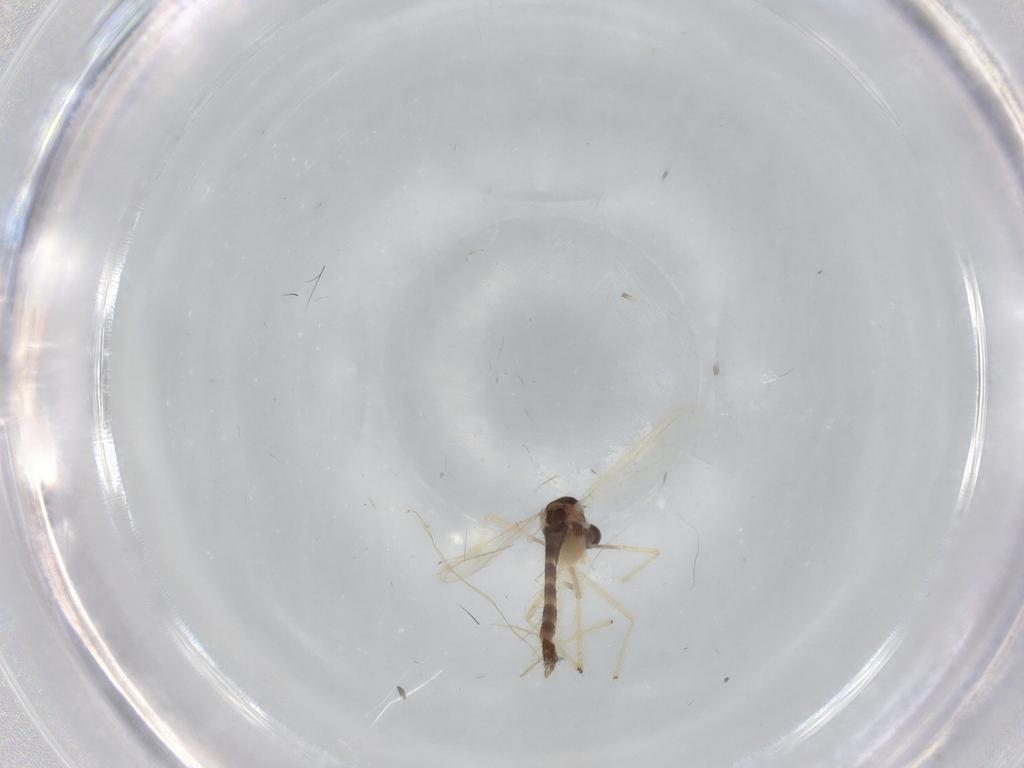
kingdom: Animalia
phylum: Arthropoda
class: Insecta
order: Diptera
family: Chironomidae
